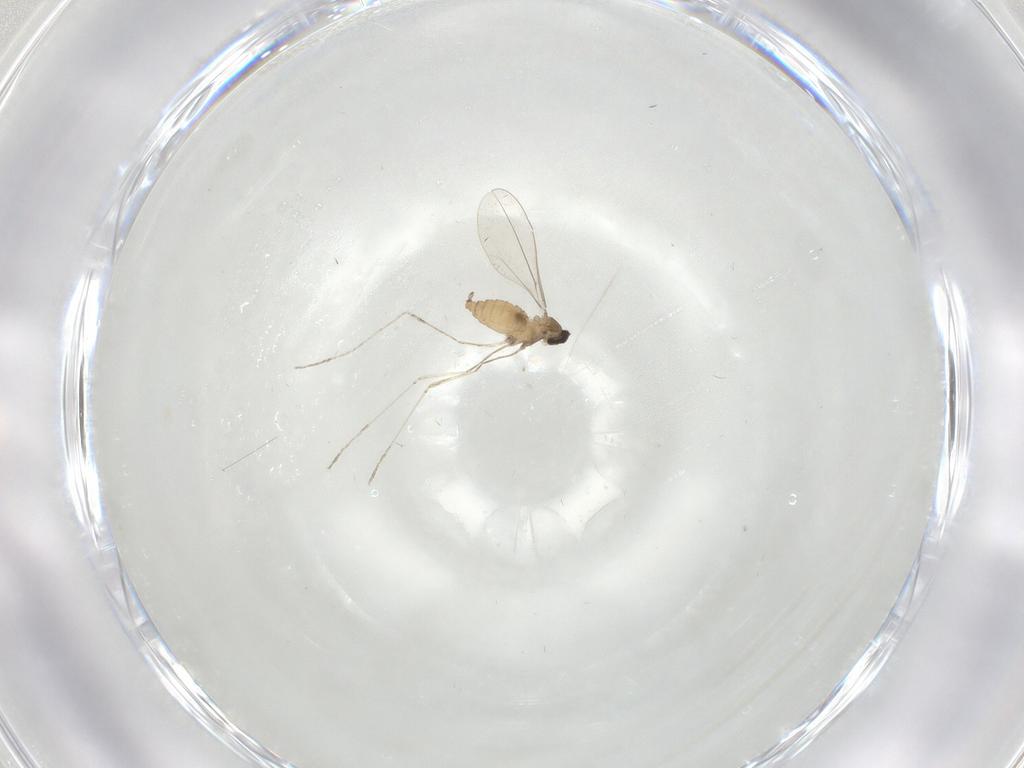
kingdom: Animalia
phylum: Arthropoda
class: Insecta
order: Diptera
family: Cecidomyiidae
